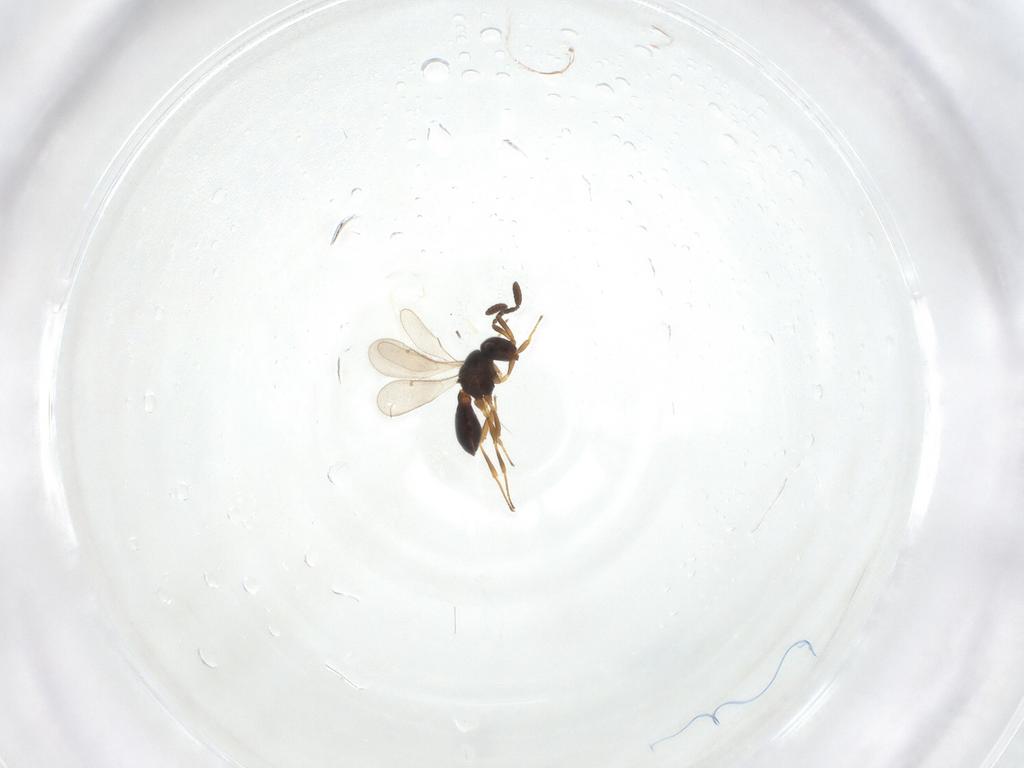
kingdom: Animalia
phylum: Arthropoda
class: Insecta
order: Hymenoptera
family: Scelionidae
